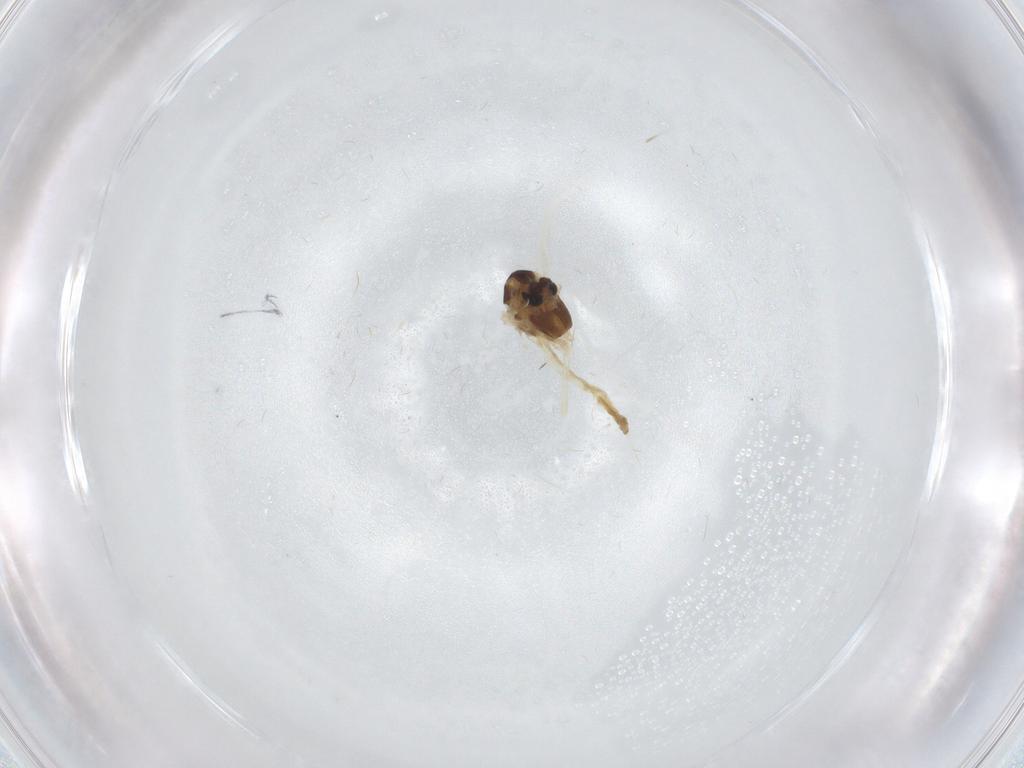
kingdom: Animalia
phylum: Arthropoda
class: Insecta
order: Diptera
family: Chironomidae
